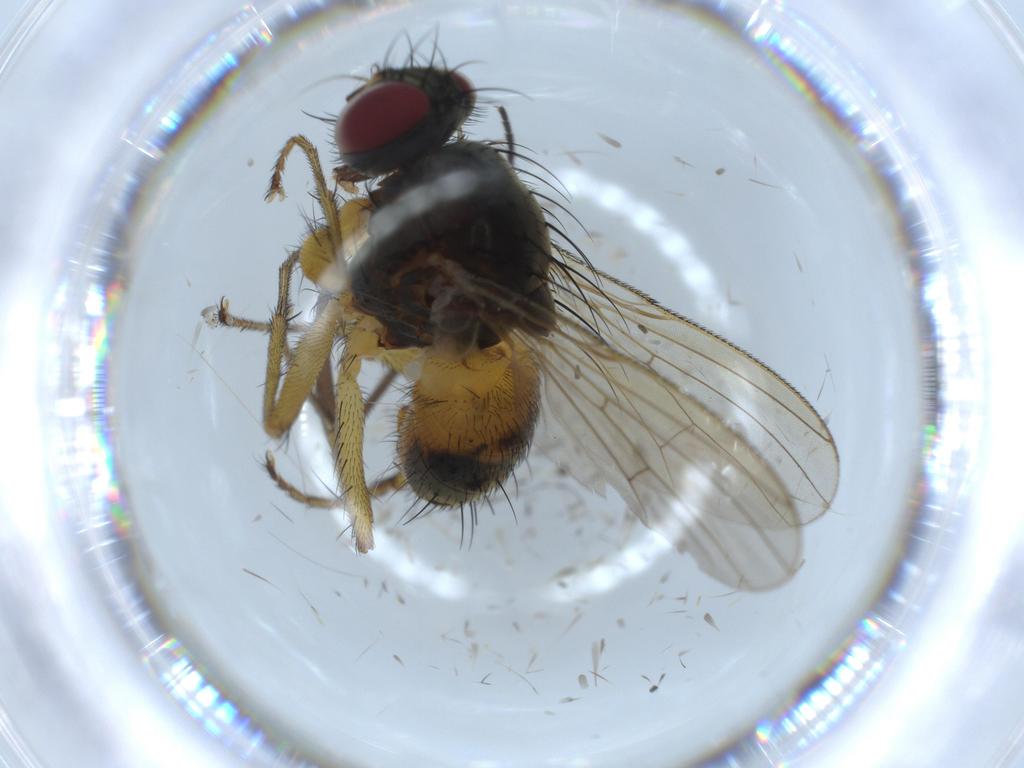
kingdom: Animalia
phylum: Arthropoda
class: Insecta
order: Diptera
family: Muscidae
